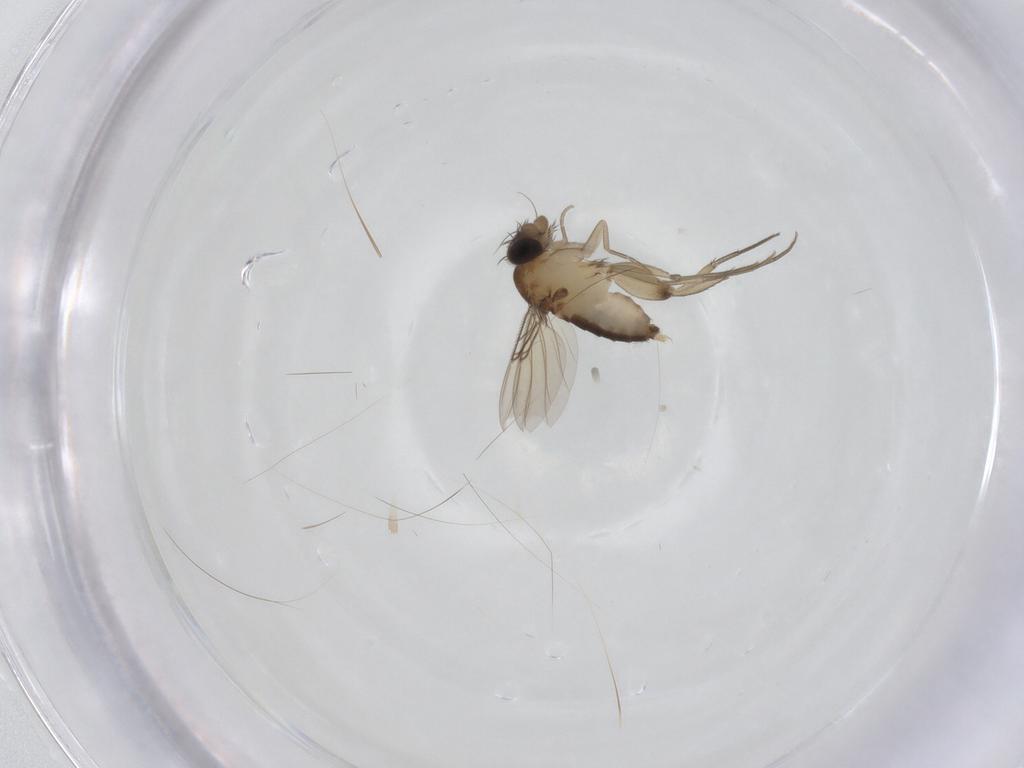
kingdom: Animalia
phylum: Arthropoda
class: Insecta
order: Diptera
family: Phoridae
